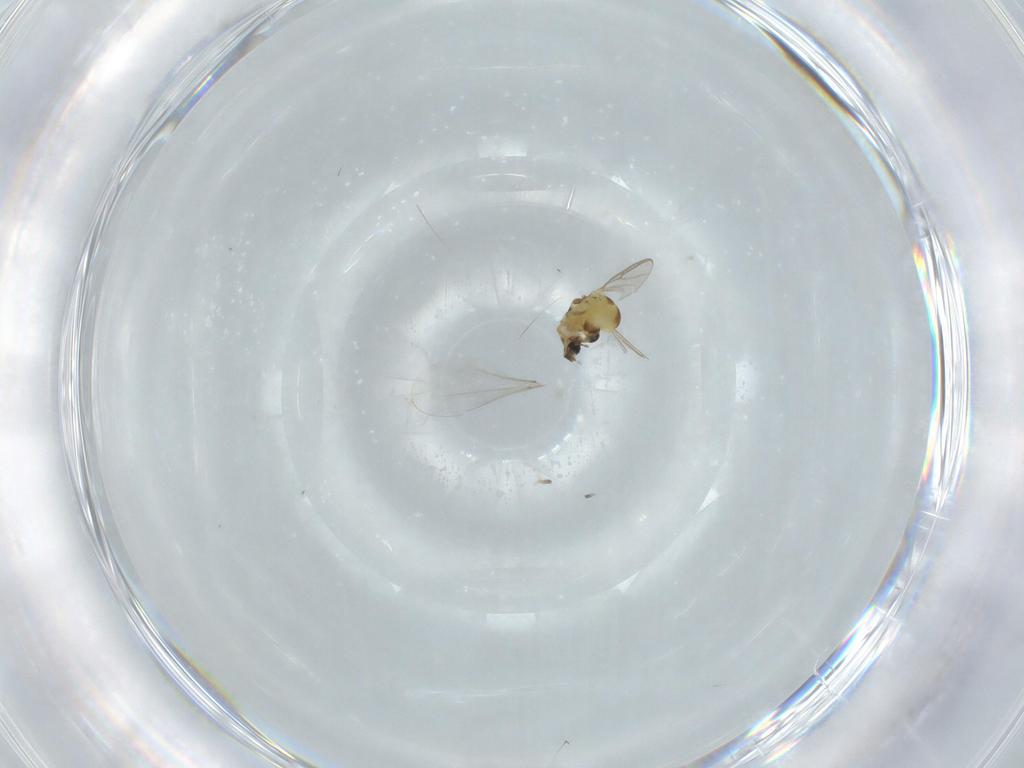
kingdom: Animalia
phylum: Arthropoda
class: Insecta
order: Diptera
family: Chironomidae
